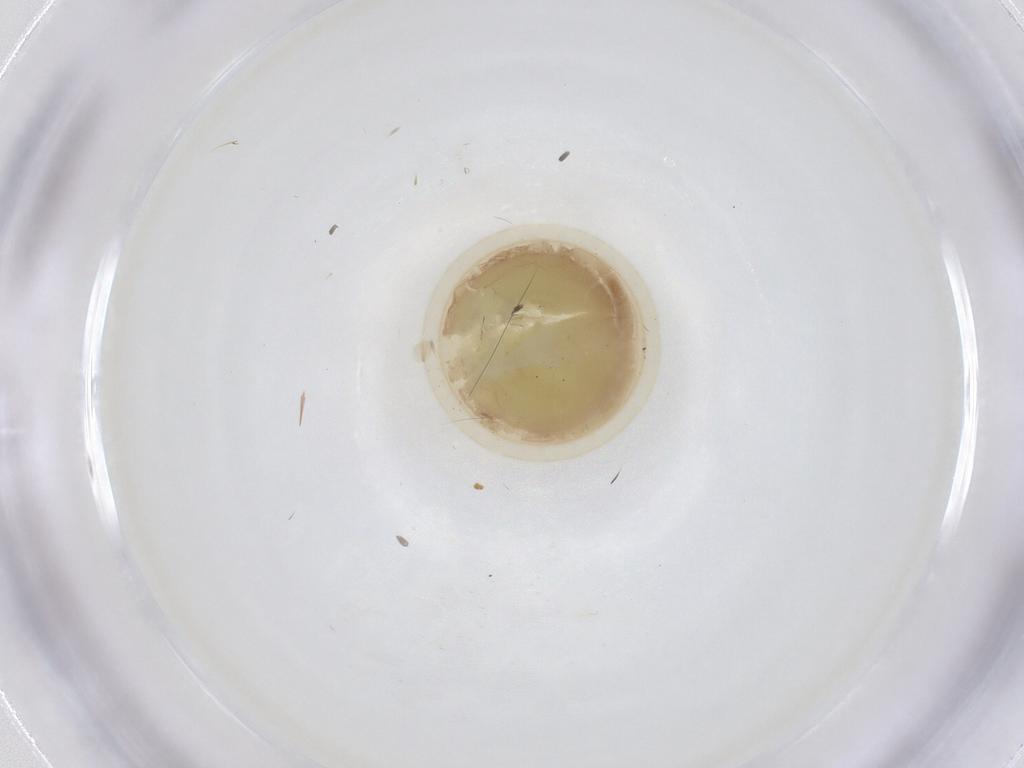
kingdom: Animalia
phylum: Arthropoda
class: Insecta
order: Lepidoptera
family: Apatelodidae
